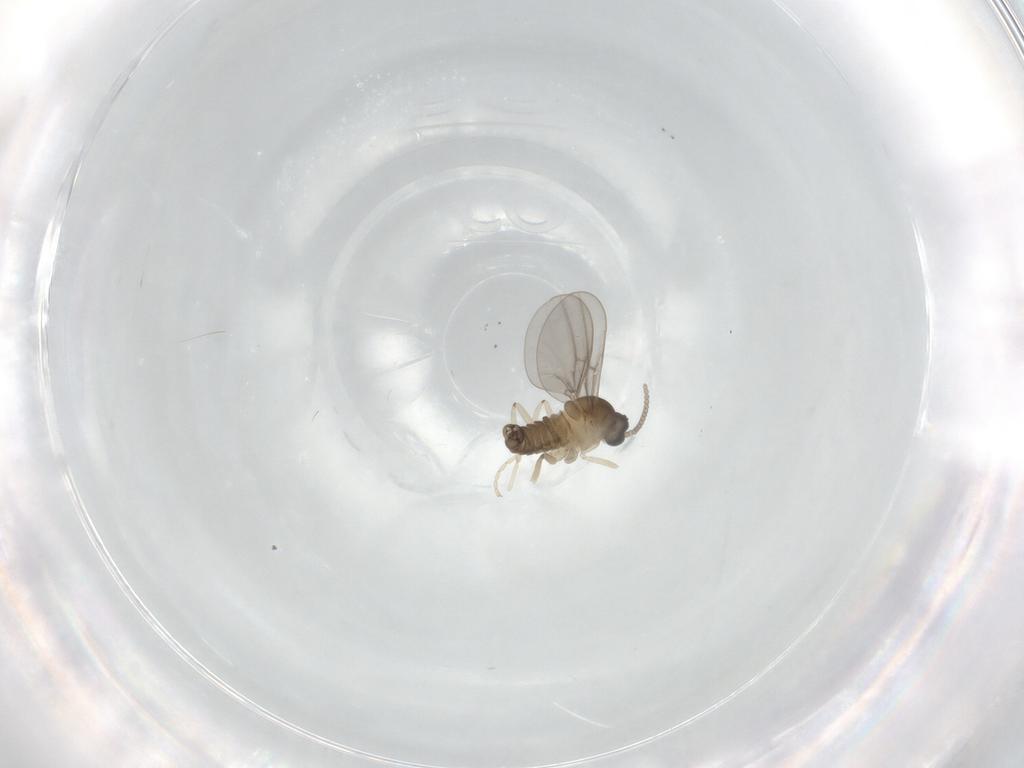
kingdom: Animalia
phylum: Arthropoda
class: Insecta
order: Diptera
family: Cecidomyiidae
